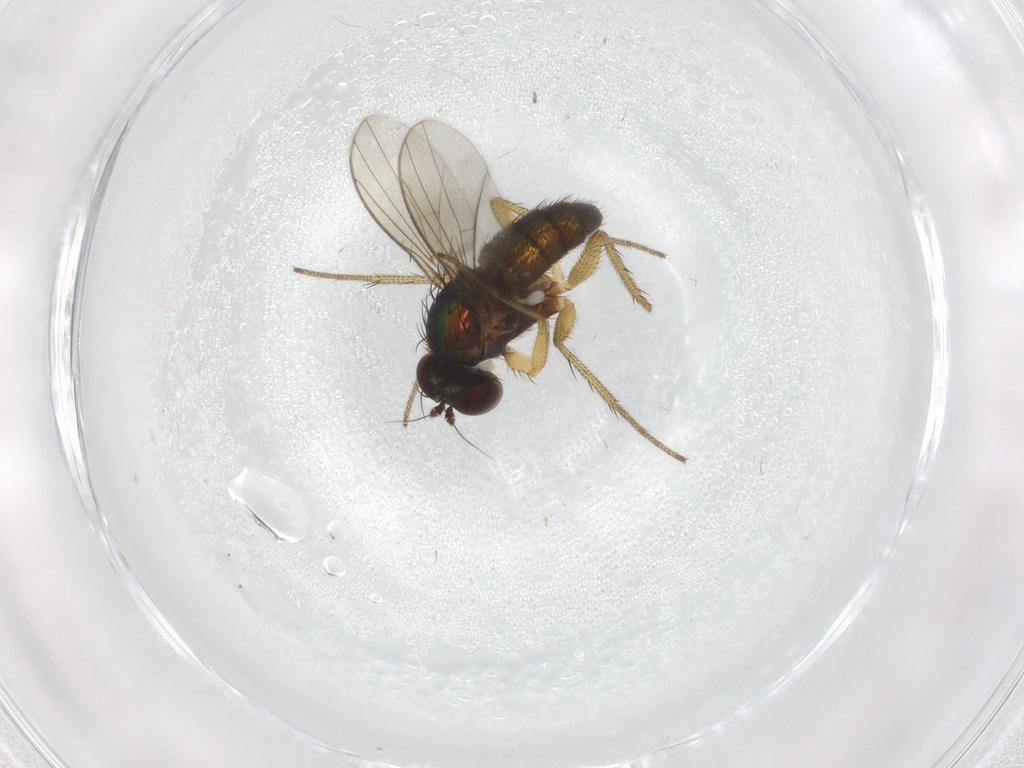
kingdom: Animalia
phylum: Arthropoda
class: Insecta
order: Diptera
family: Dolichopodidae
